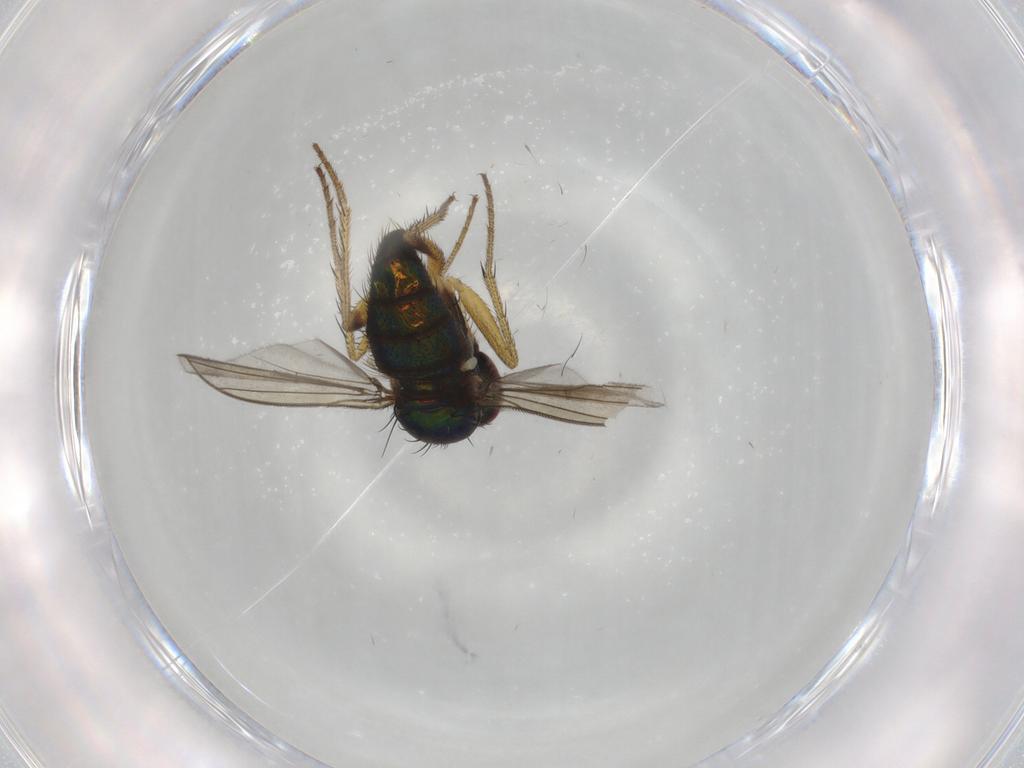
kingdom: Animalia
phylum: Arthropoda
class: Insecta
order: Diptera
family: Dolichopodidae
